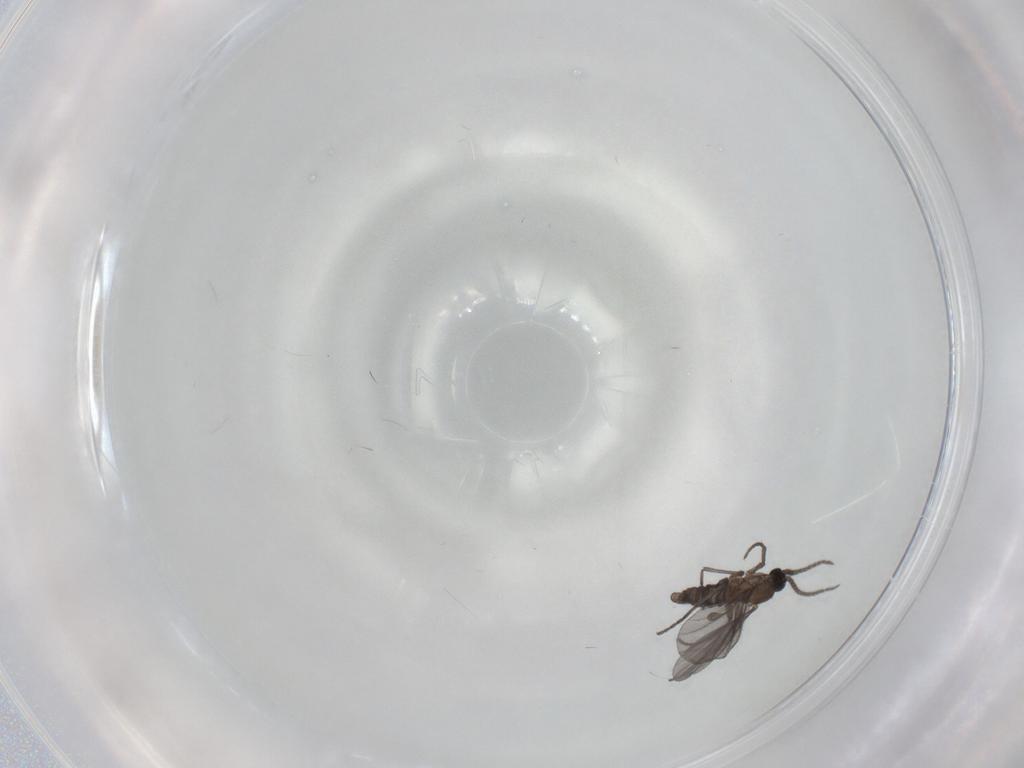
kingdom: Animalia
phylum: Arthropoda
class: Insecta
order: Diptera
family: Sciaridae
